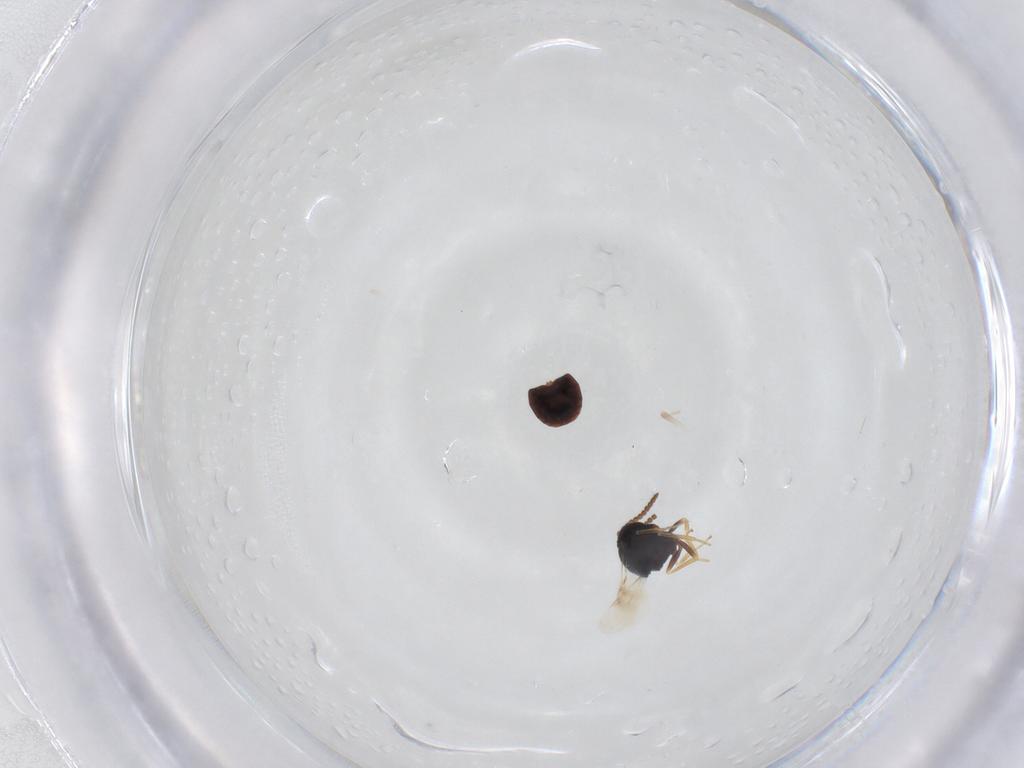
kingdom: Animalia
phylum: Arthropoda
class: Insecta
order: Hymenoptera
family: Scelionidae
